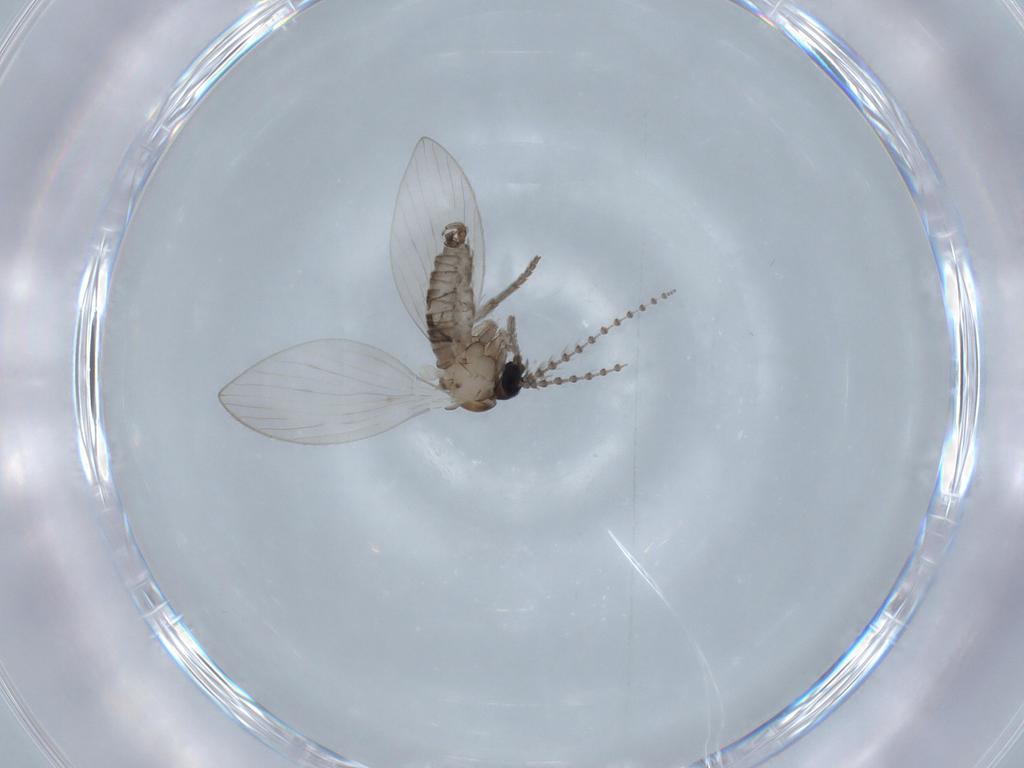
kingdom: Animalia
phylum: Arthropoda
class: Insecta
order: Diptera
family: Psychodidae
